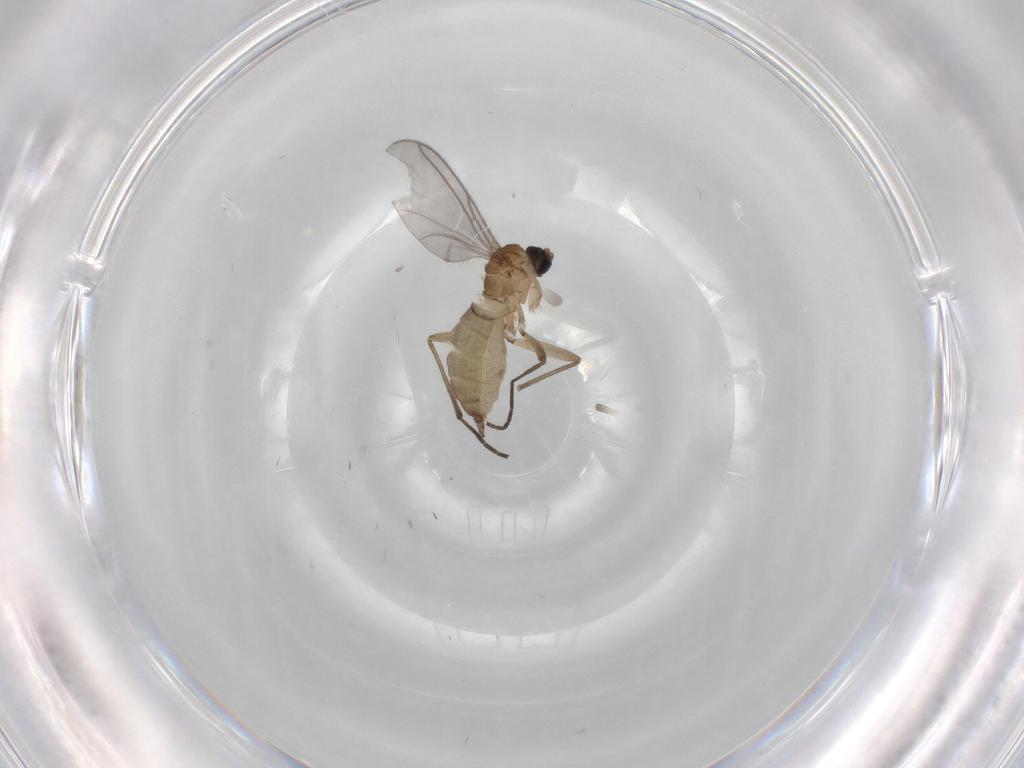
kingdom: Animalia
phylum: Arthropoda
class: Insecta
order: Diptera
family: Sciaridae
